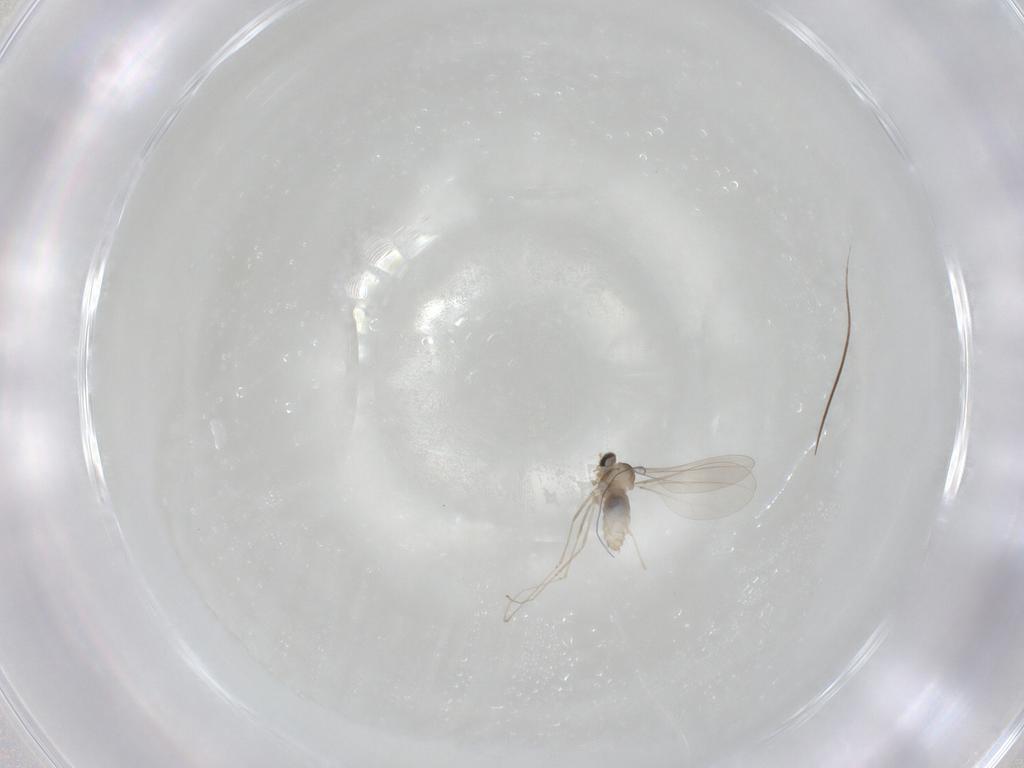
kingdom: Animalia
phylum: Arthropoda
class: Insecta
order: Diptera
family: Cecidomyiidae
